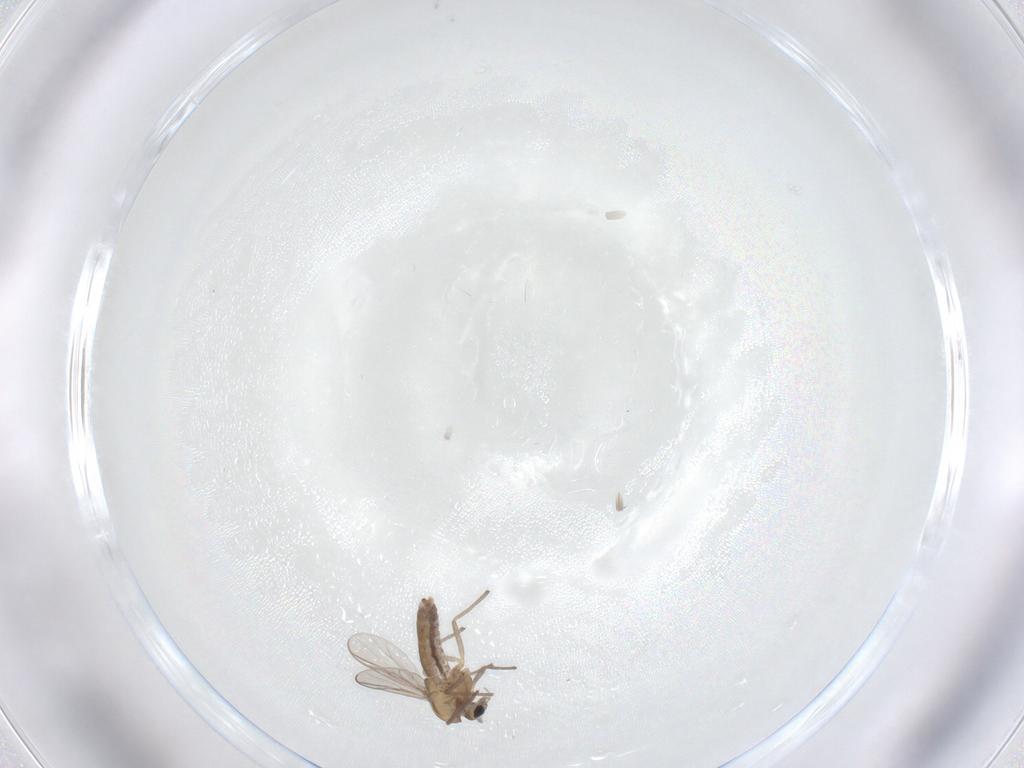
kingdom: Animalia
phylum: Arthropoda
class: Insecta
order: Diptera
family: Chironomidae
